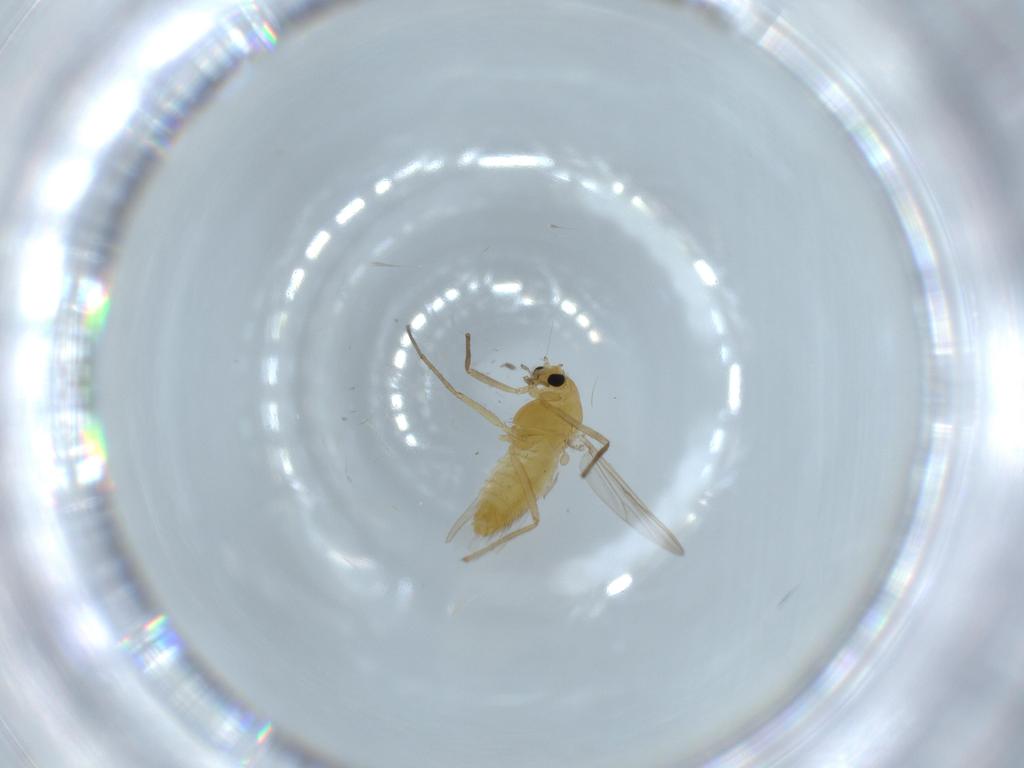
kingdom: Animalia
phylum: Arthropoda
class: Insecta
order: Diptera
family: Chironomidae
